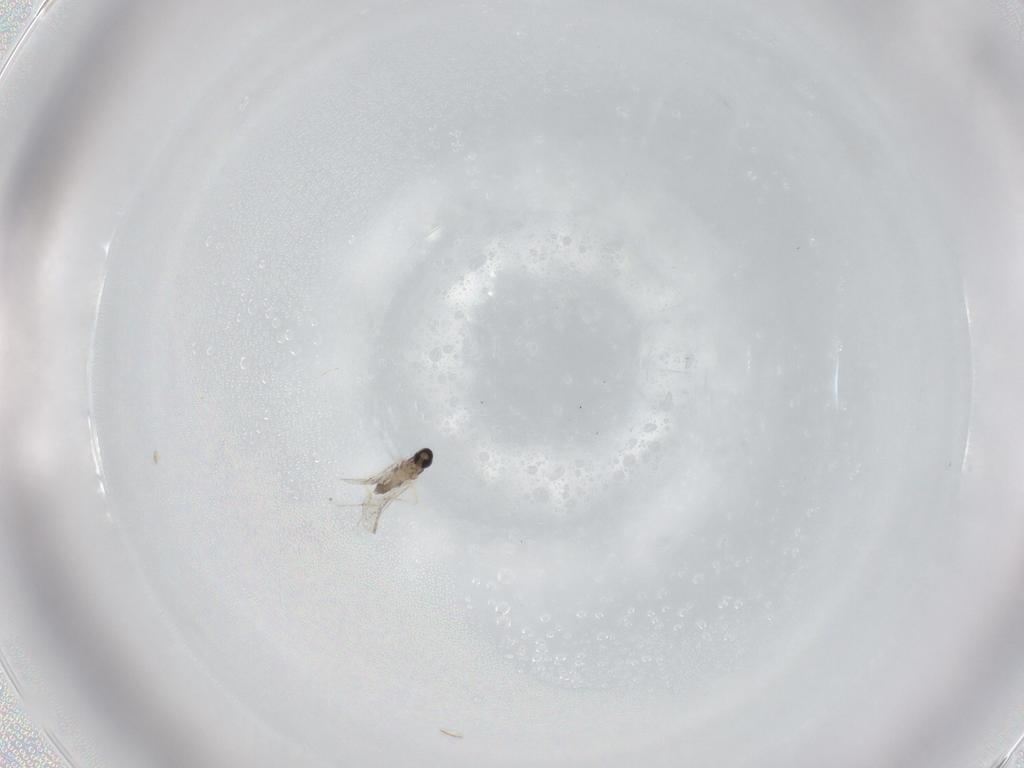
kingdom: Animalia
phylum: Arthropoda
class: Insecta
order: Diptera
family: Cecidomyiidae
